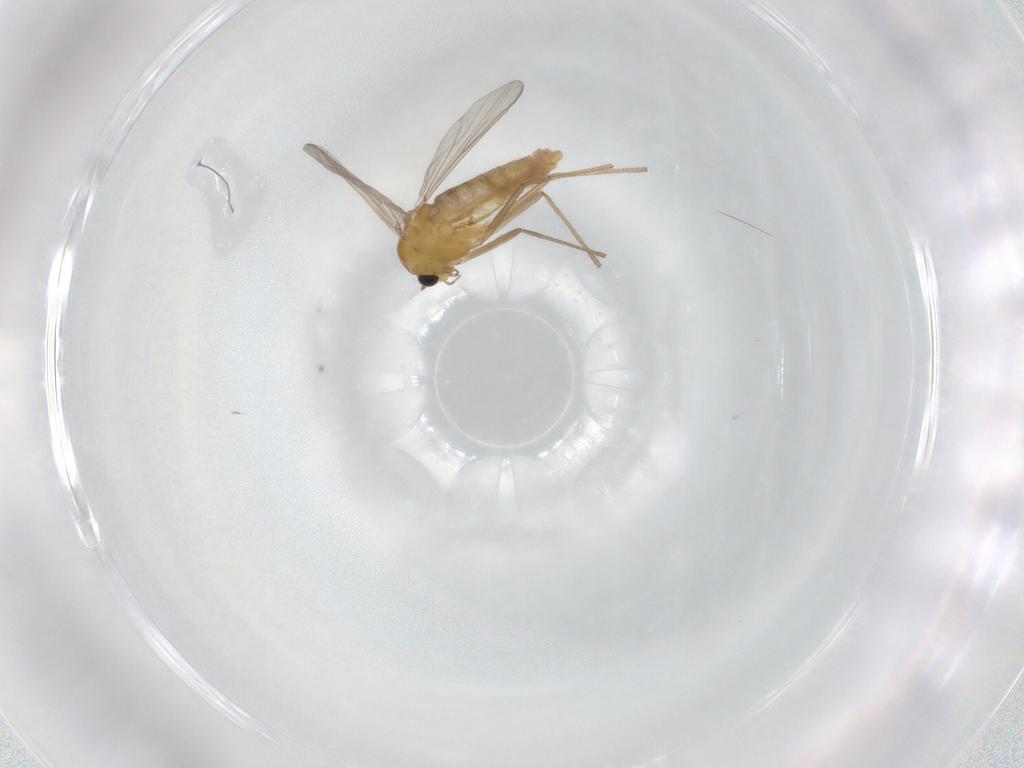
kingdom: Animalia
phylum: Arthropoda
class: Insecta
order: Diptera
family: Chironomidae
